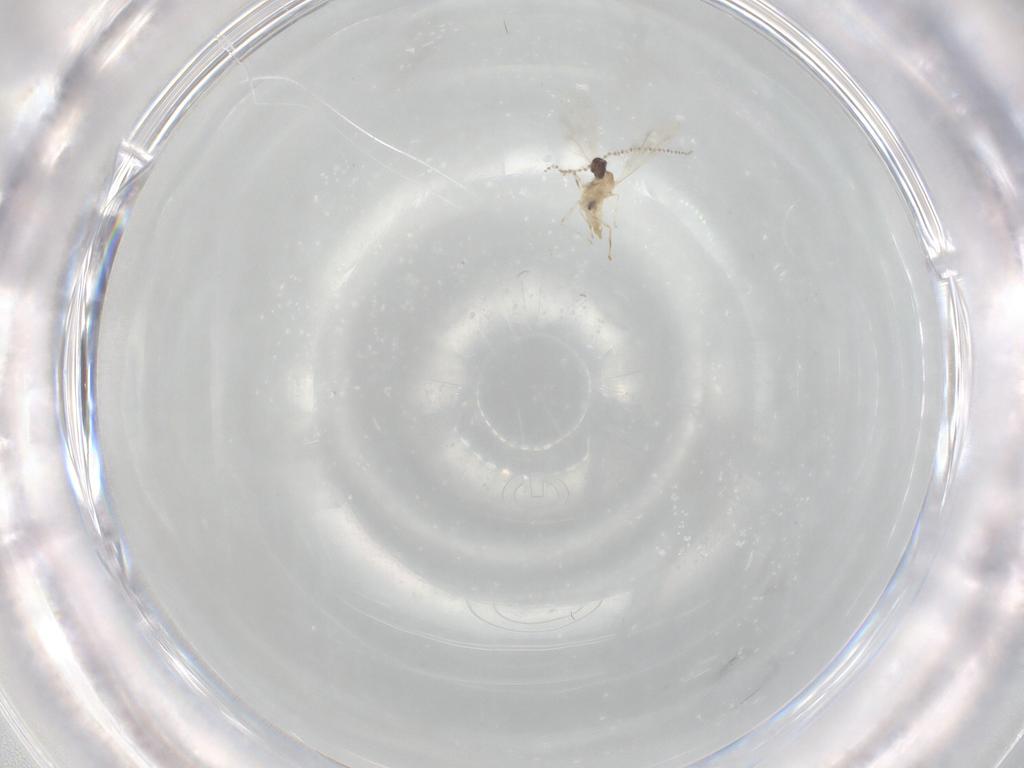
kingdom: Animalia
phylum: Arthropoda
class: Insecta
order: Diptera
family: Cecidomyiidae
